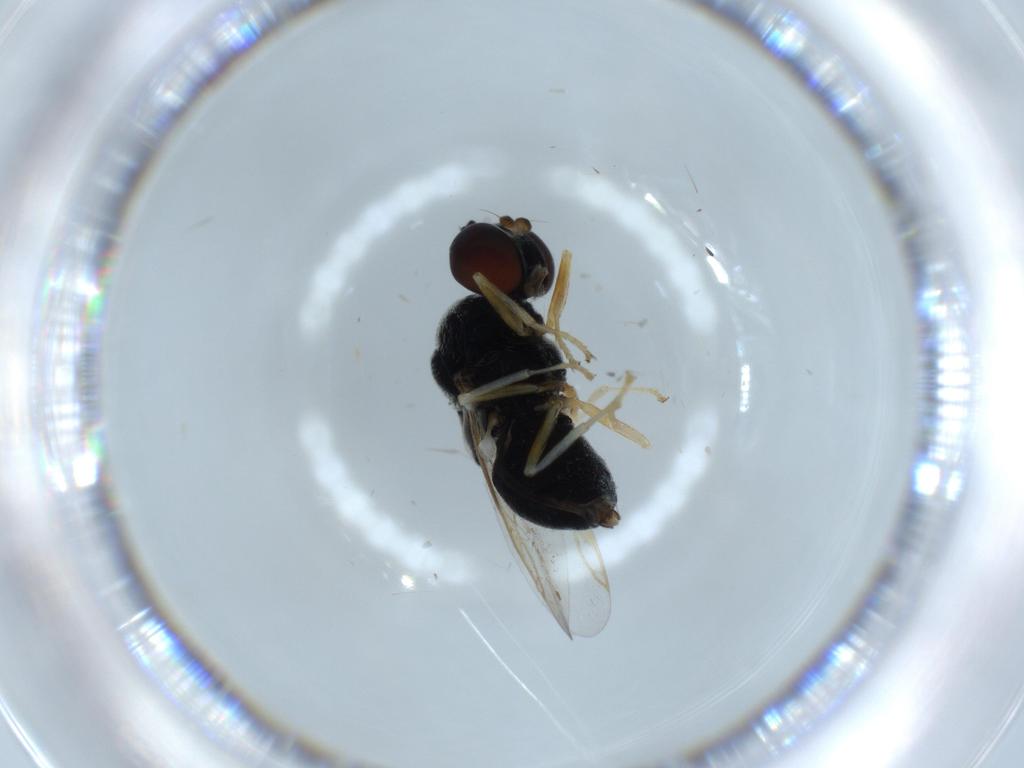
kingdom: Animalia
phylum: Arthropoda
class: Insecta
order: Diptera
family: Stratiomyidae
